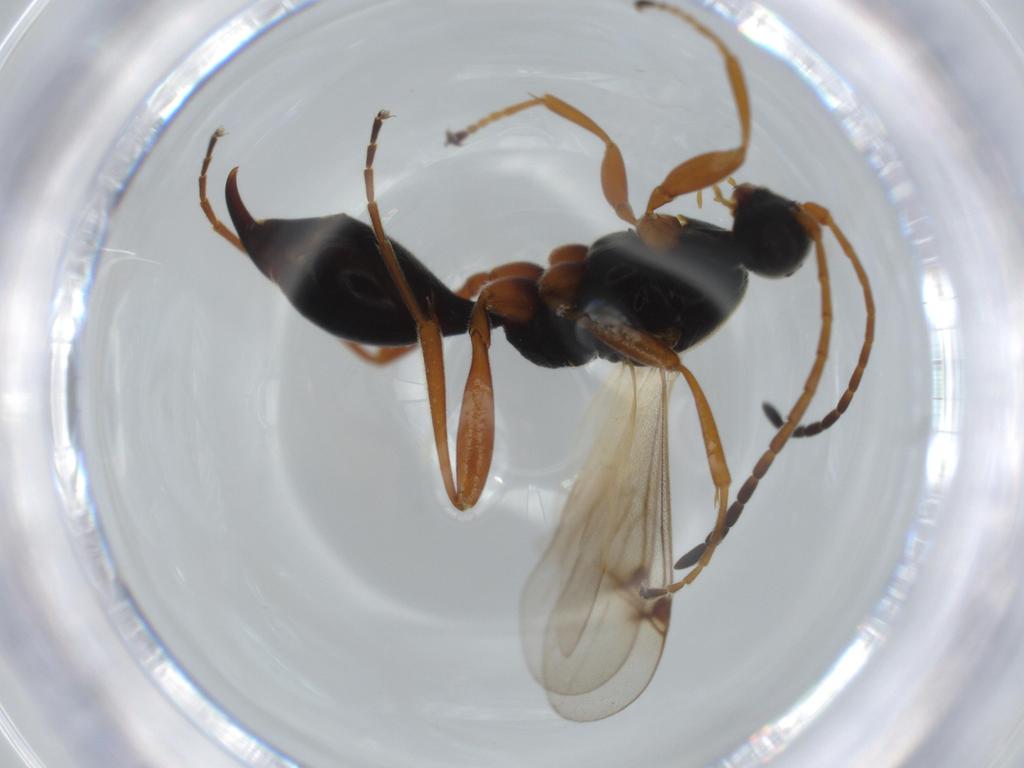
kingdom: Animalia
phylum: Arthropoda
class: Insecta
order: Hymenoptera
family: Proctotrupidae
